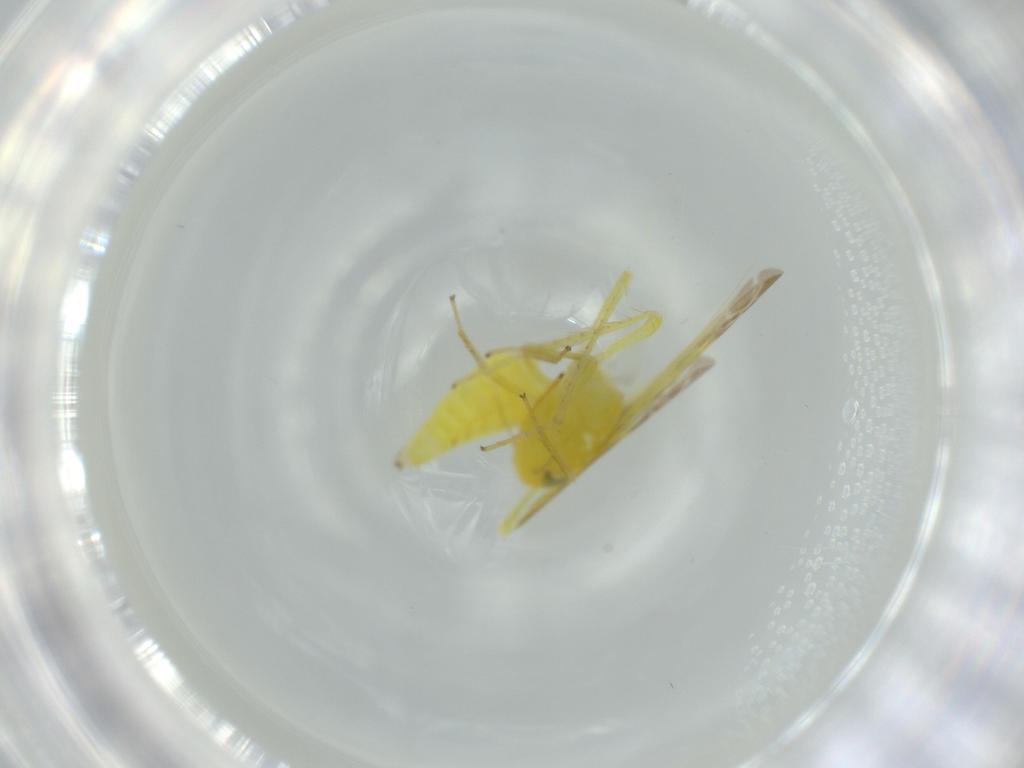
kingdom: Animalia
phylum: Arthropoda
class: Insecta
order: Hemiptera
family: Cicadellidae
